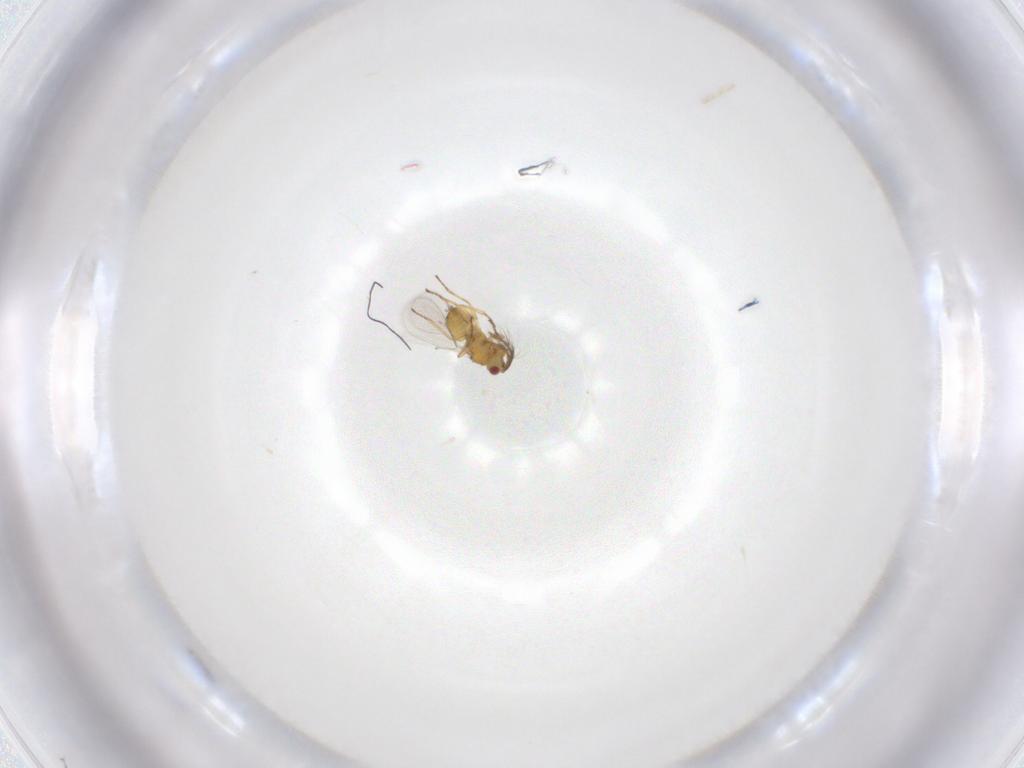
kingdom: Animalia
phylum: Arthropoda
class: Insecta
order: Hymenoptera
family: Eulophidae
